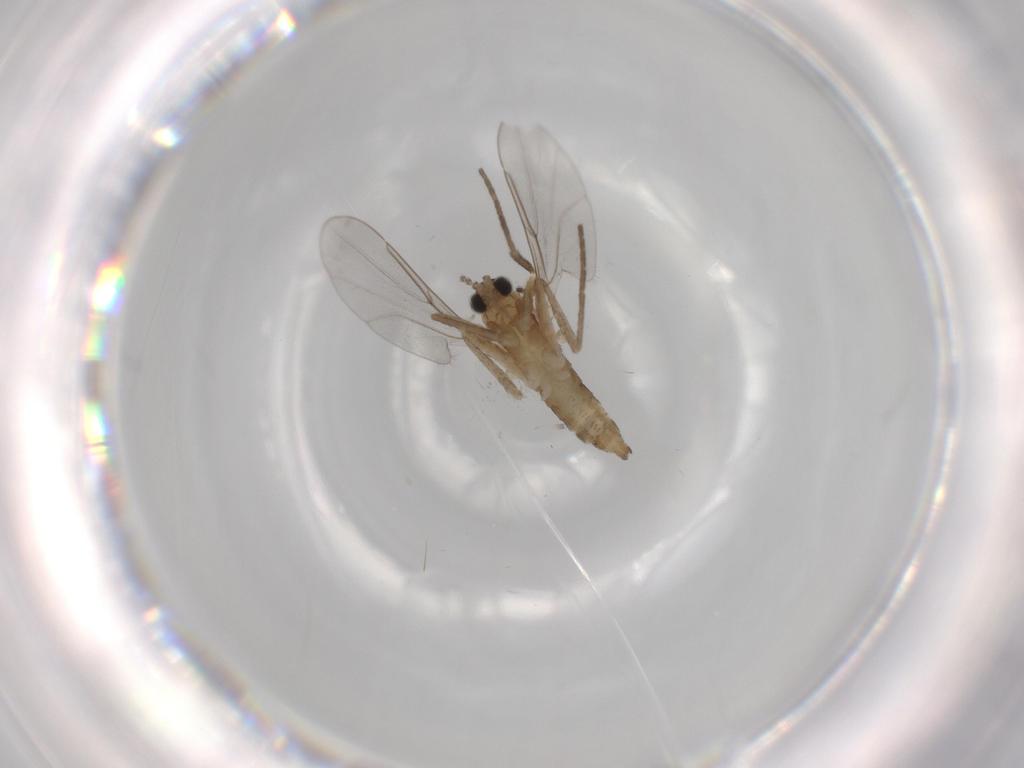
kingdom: Animalia
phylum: Arthropoda
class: Insecta
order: Diptera
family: Cecidomyiidae
